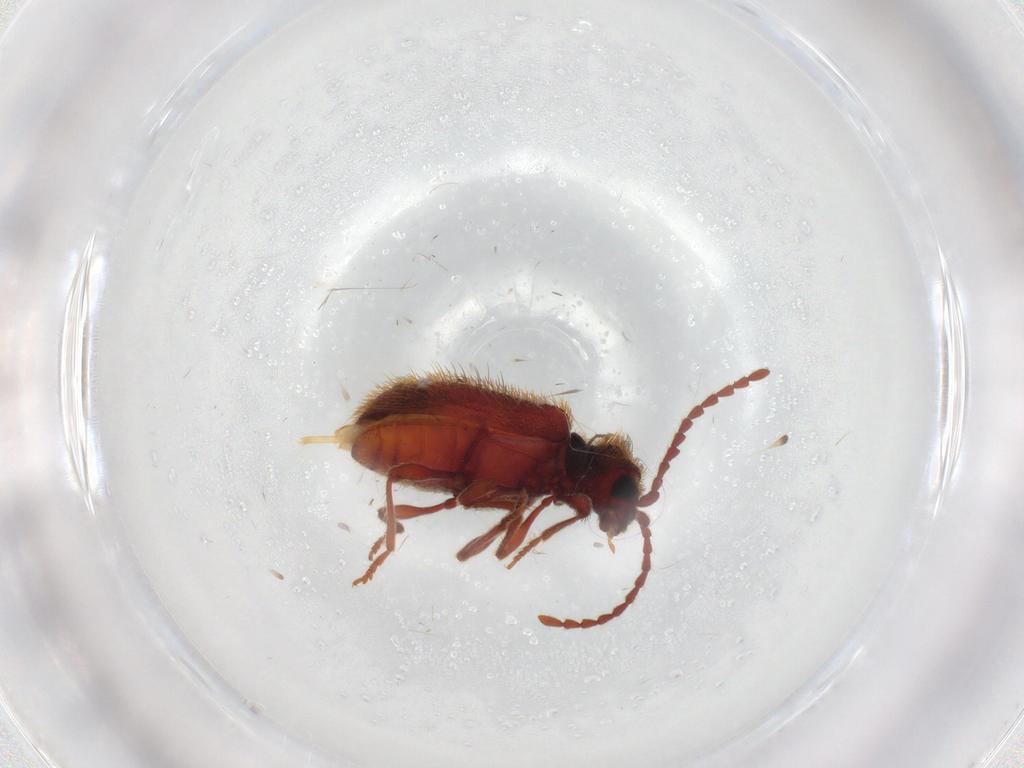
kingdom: Animalia
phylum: Arthropoda
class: Insecta
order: Coleoptera
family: Ptinidae
